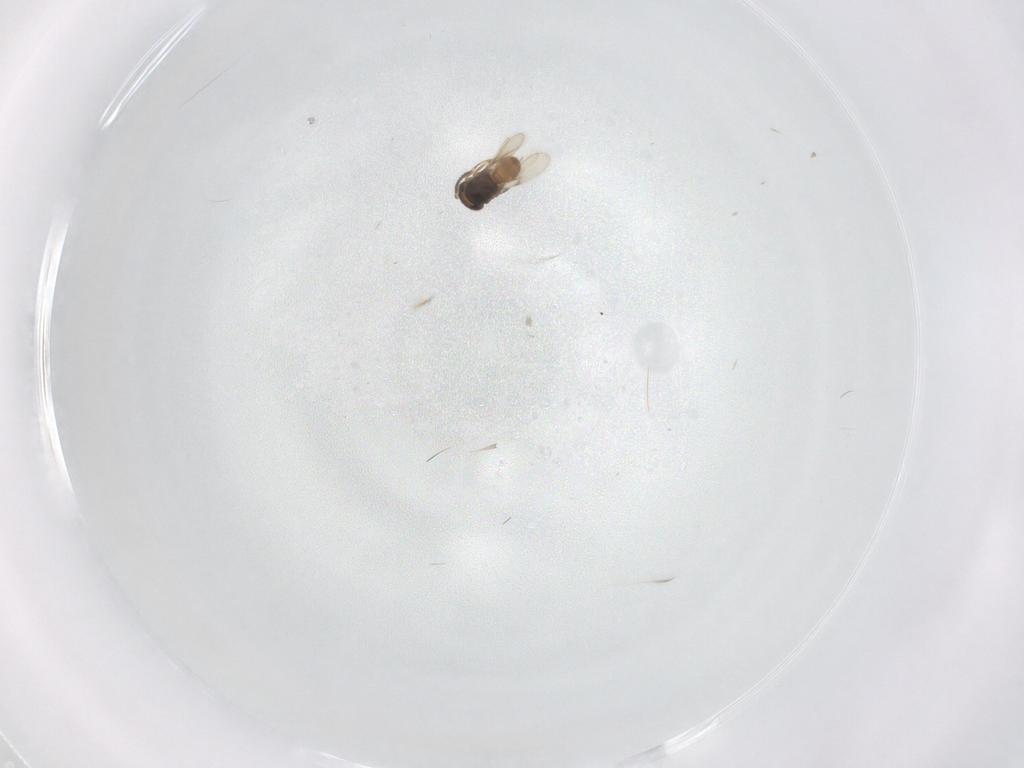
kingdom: Animalia
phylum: Arthropoda
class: Insecta
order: Hymenoptera
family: Scelionidae
